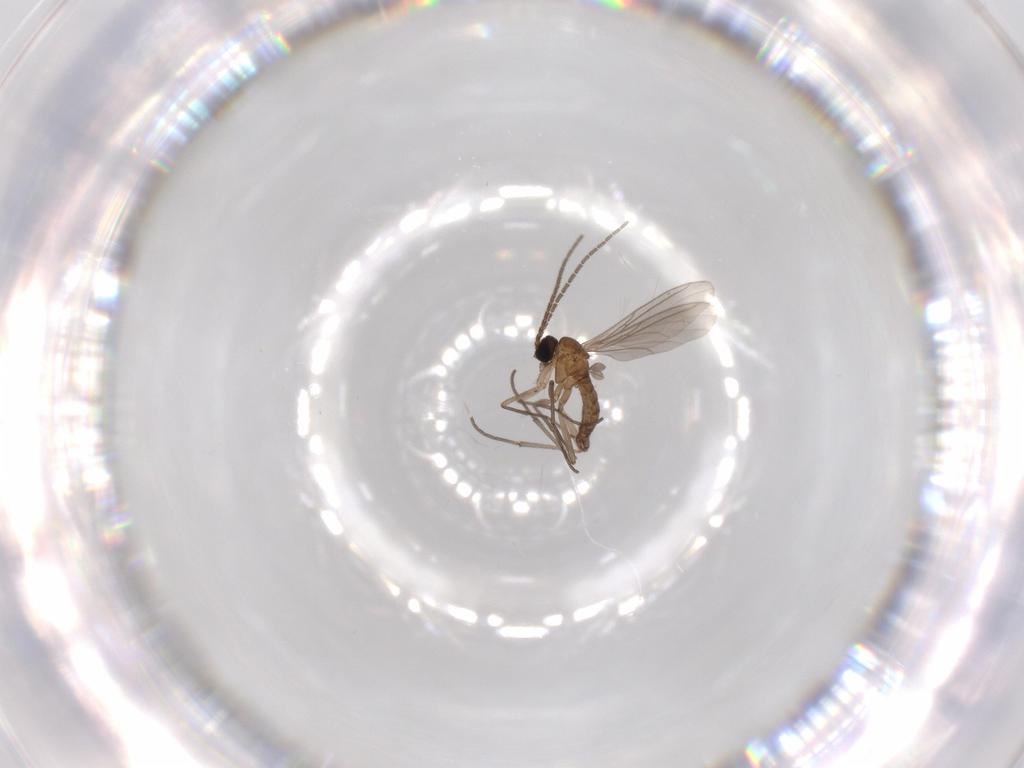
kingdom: Animalia
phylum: Arthropoda
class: Insecta
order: Diptera
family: Sciaridae
